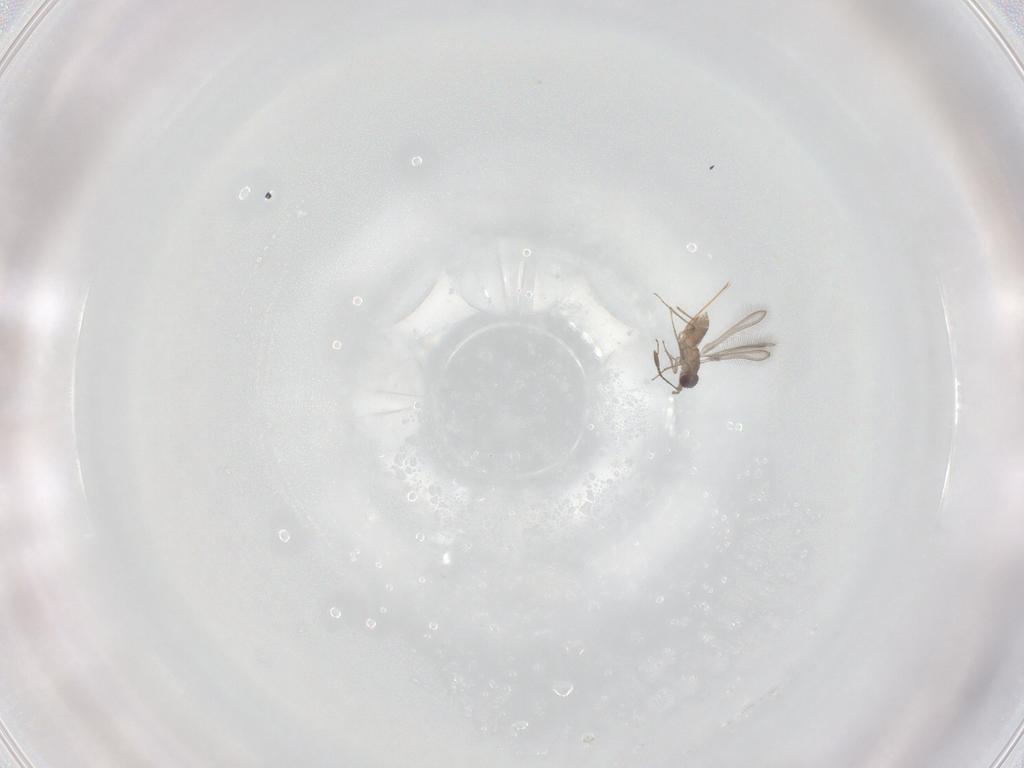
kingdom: Animalia
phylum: Arthropoda
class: Insecta
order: Hymenoptera
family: Mymaridae
